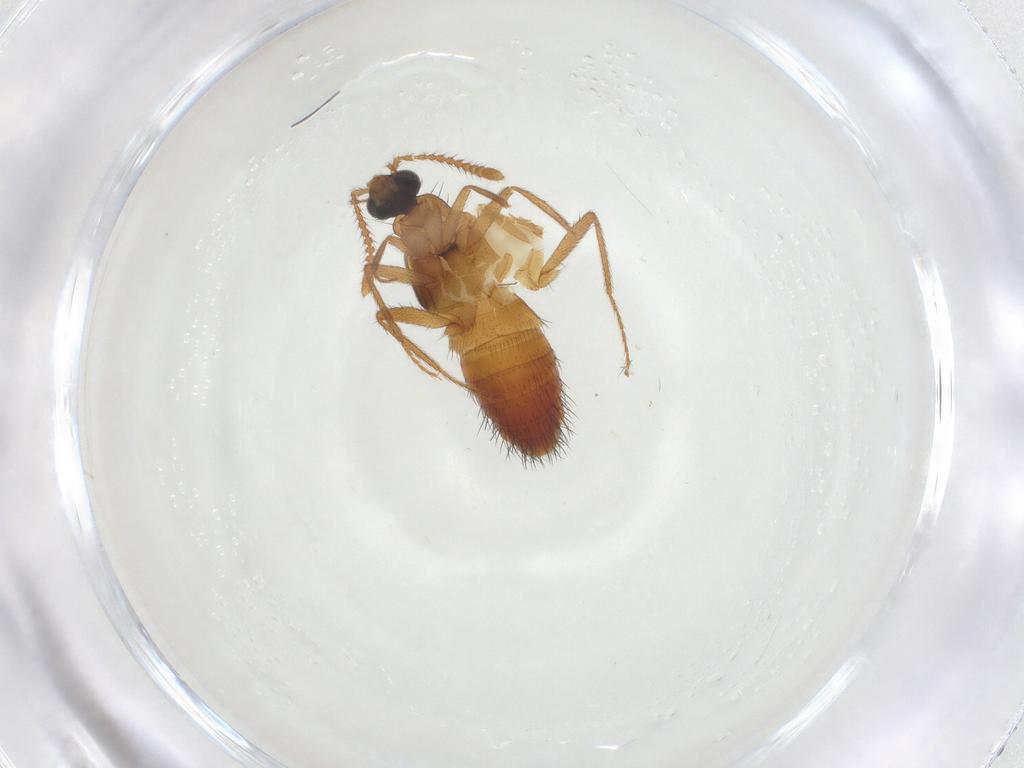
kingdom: Animalia
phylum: Arthropoda
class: Insecta
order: Coleoptera
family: Staphylinidae
